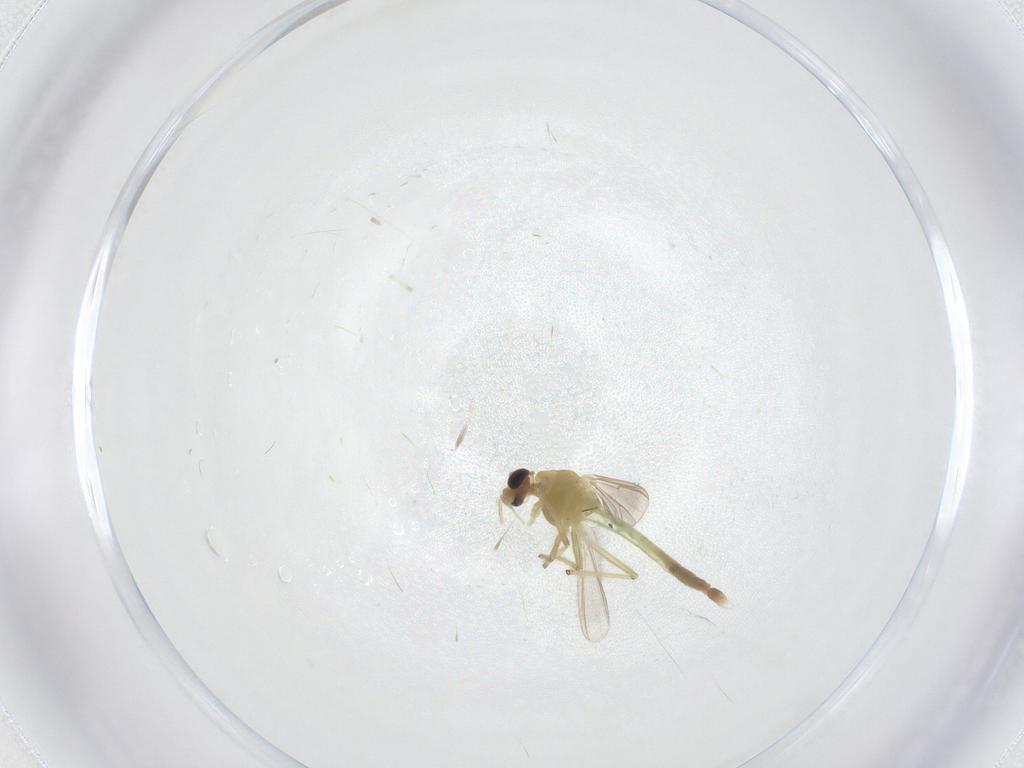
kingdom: Animalia
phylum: Arthropoda
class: Insecta
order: Diptera
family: Chironomidae
